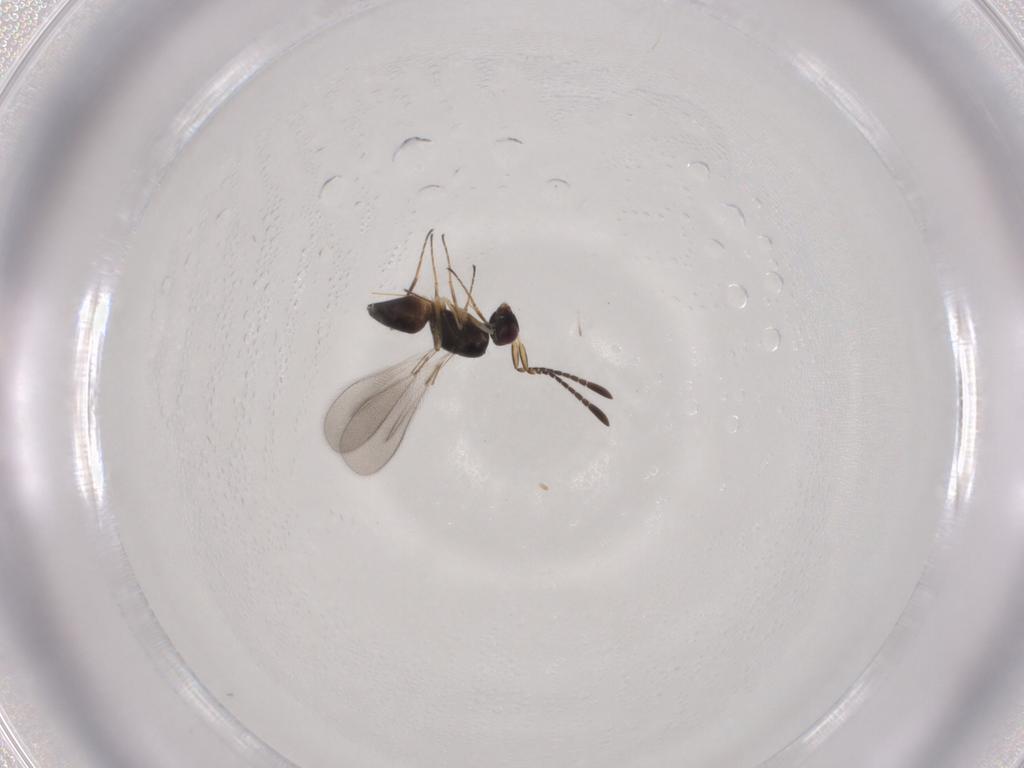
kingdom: Animalia
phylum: Arthropoda
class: Insecta
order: Hymenoptera
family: Mymaridae
